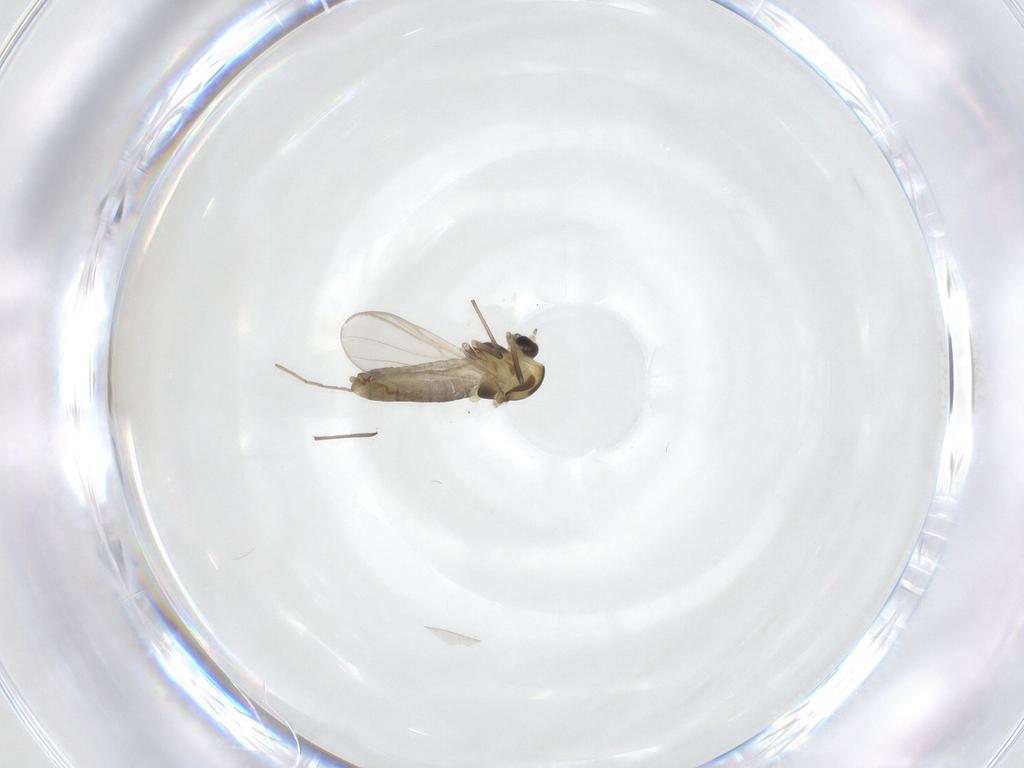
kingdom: Animalia
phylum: Arthropoda
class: Insecta
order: Diptera
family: Chironomidae
